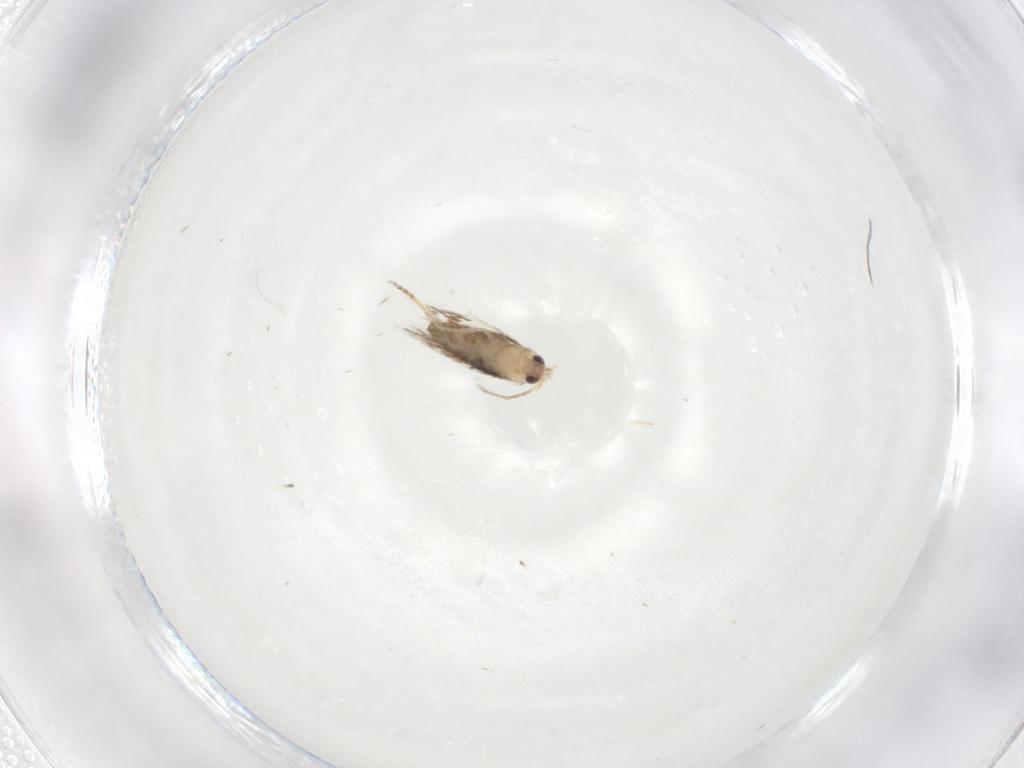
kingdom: Animalia
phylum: Arthropoda
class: Insecta
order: Lepidoptera
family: Nepticulidae
